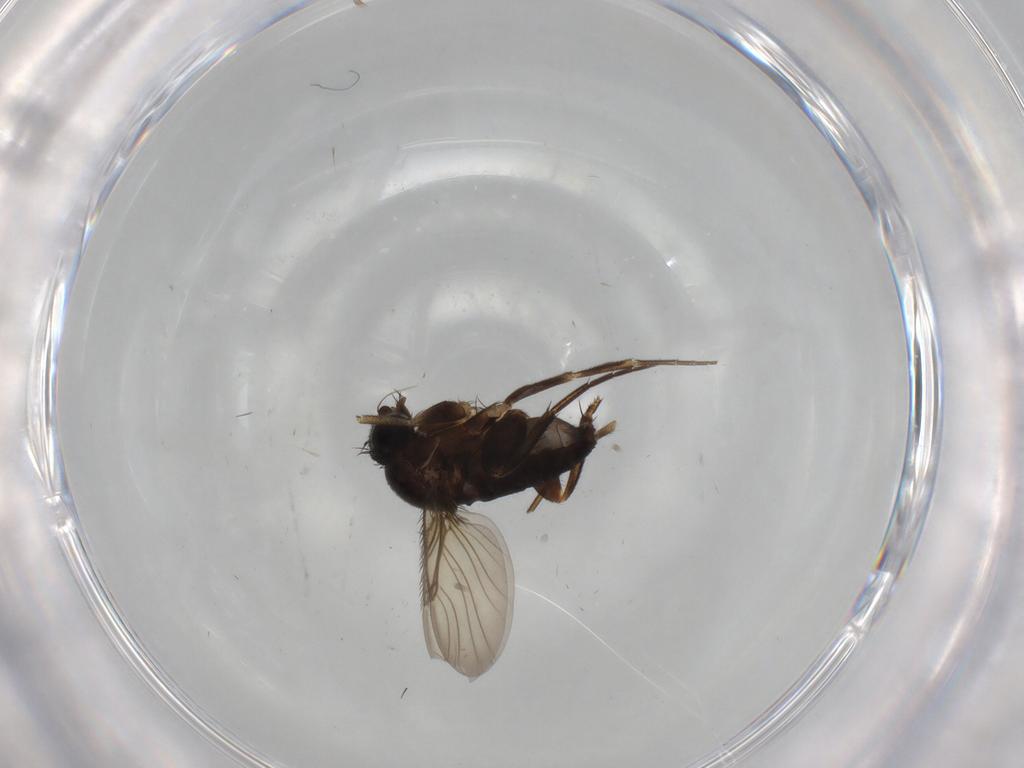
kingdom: Animalia
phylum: Arthropoda
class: Insecta
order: Diptera
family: Phoridae
